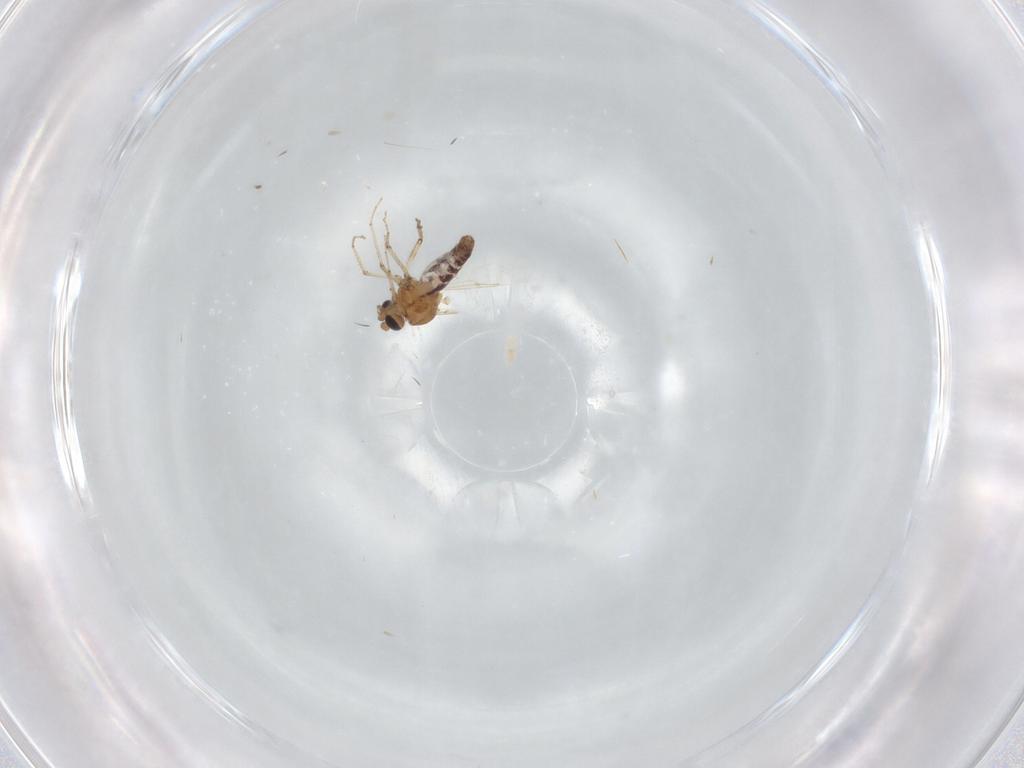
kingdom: Animalia
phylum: Arthropoda
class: Insecta
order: Diptera
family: Ceratopogonidae
